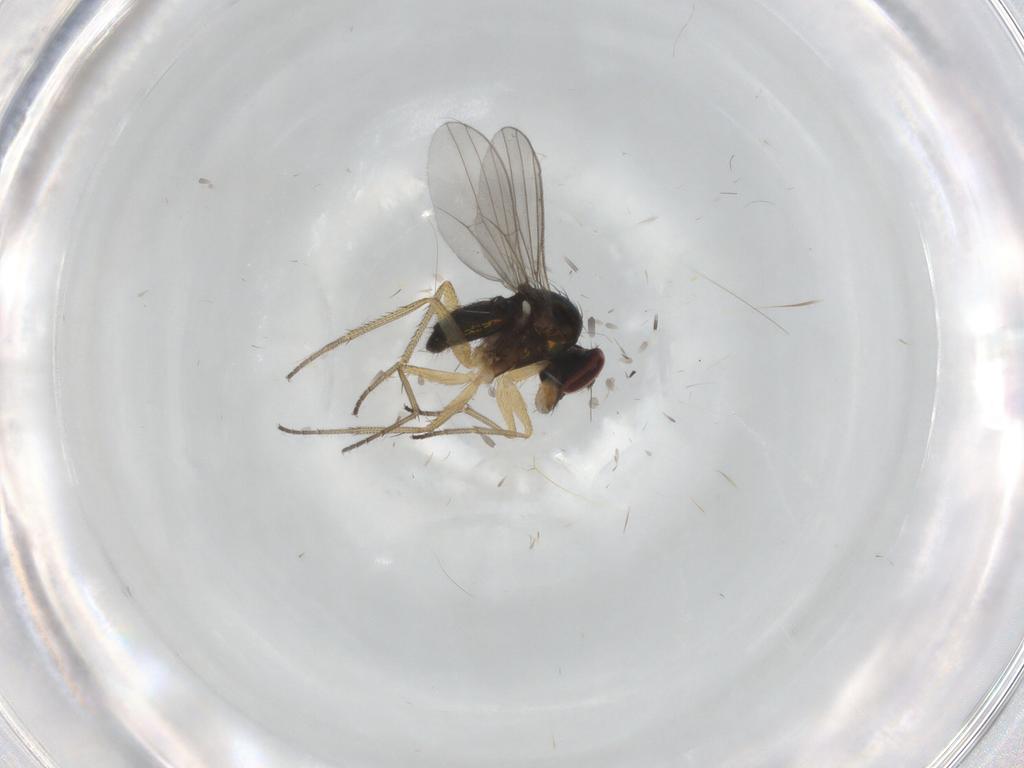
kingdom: Animalia
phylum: Arthropoda
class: Insecta
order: Diptera
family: Dolichopodidae
